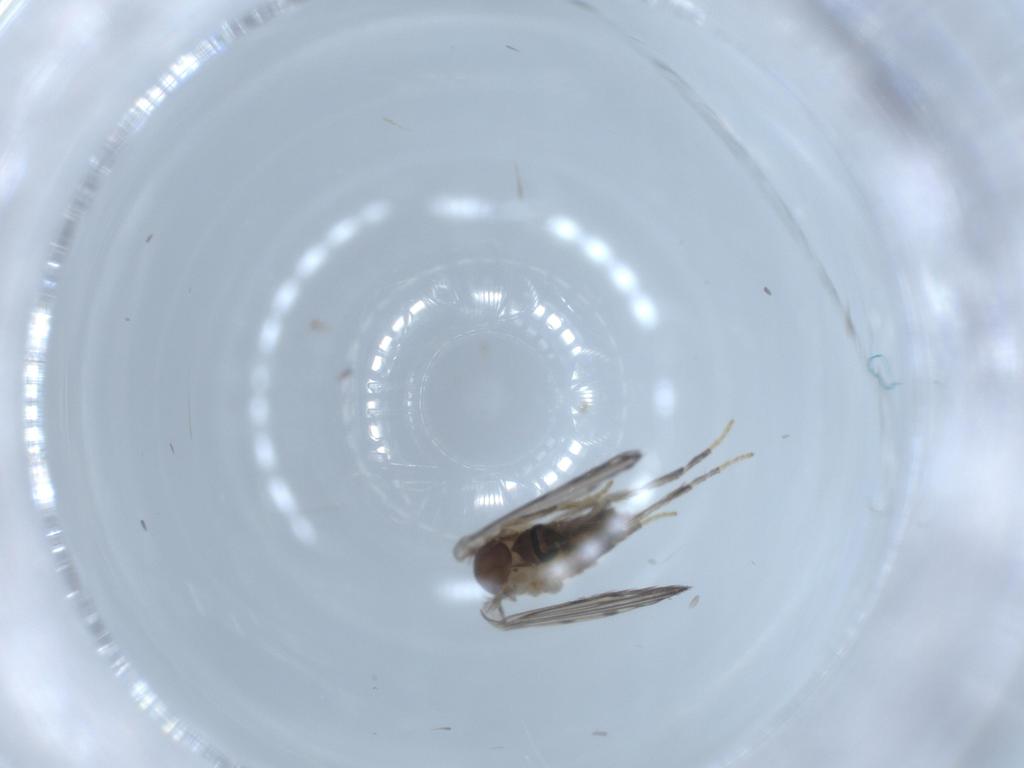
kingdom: Animalia
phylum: Arthropoda
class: Insecta
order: Diptera
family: Psychodidae
